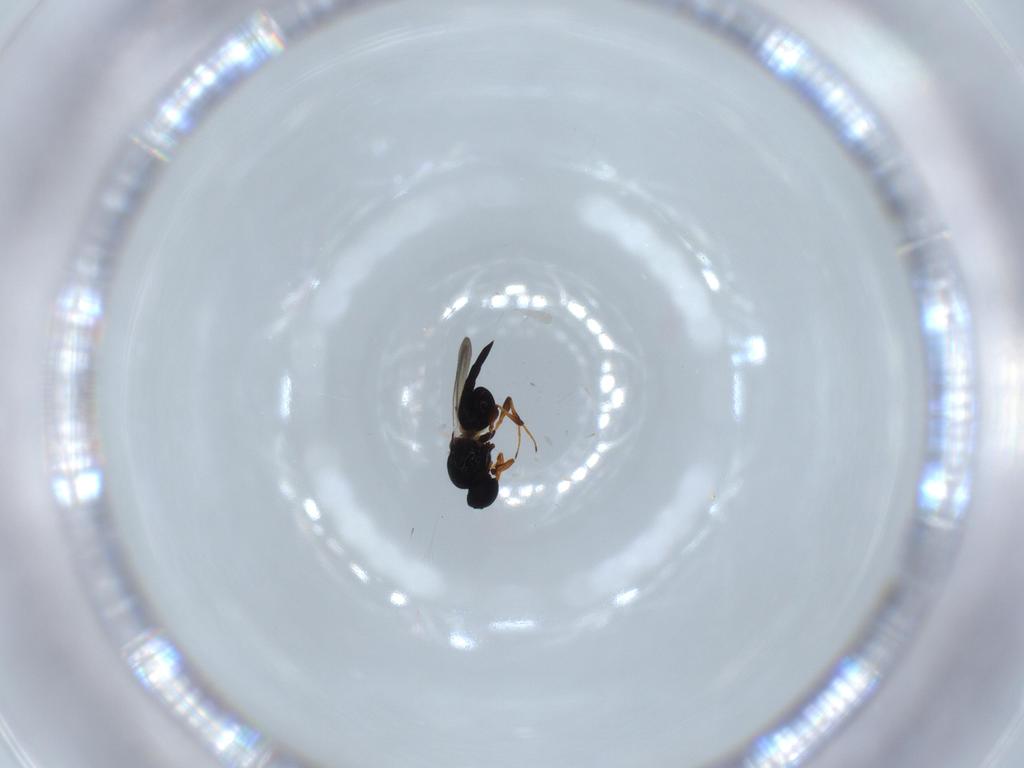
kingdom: Animalia
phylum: Arthropoda
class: Insecta
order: Hymenoptera
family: Platygastridae
